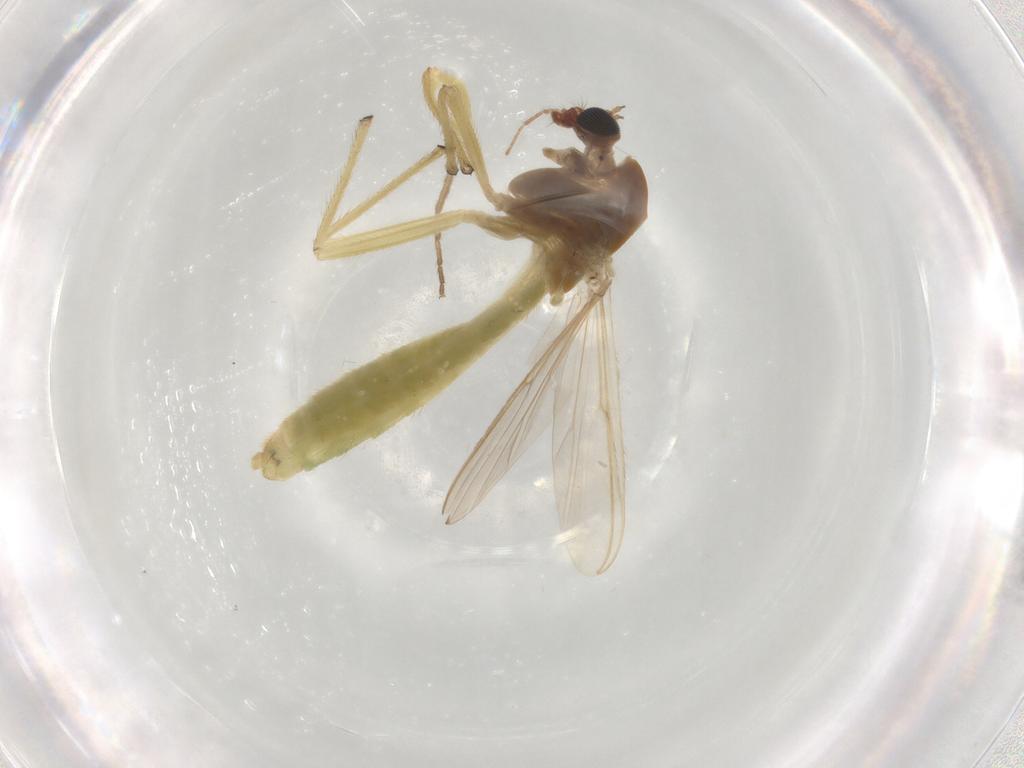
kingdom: Animalia
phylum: Arthropoda
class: Insecta
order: Diptera
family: Chironomidae
